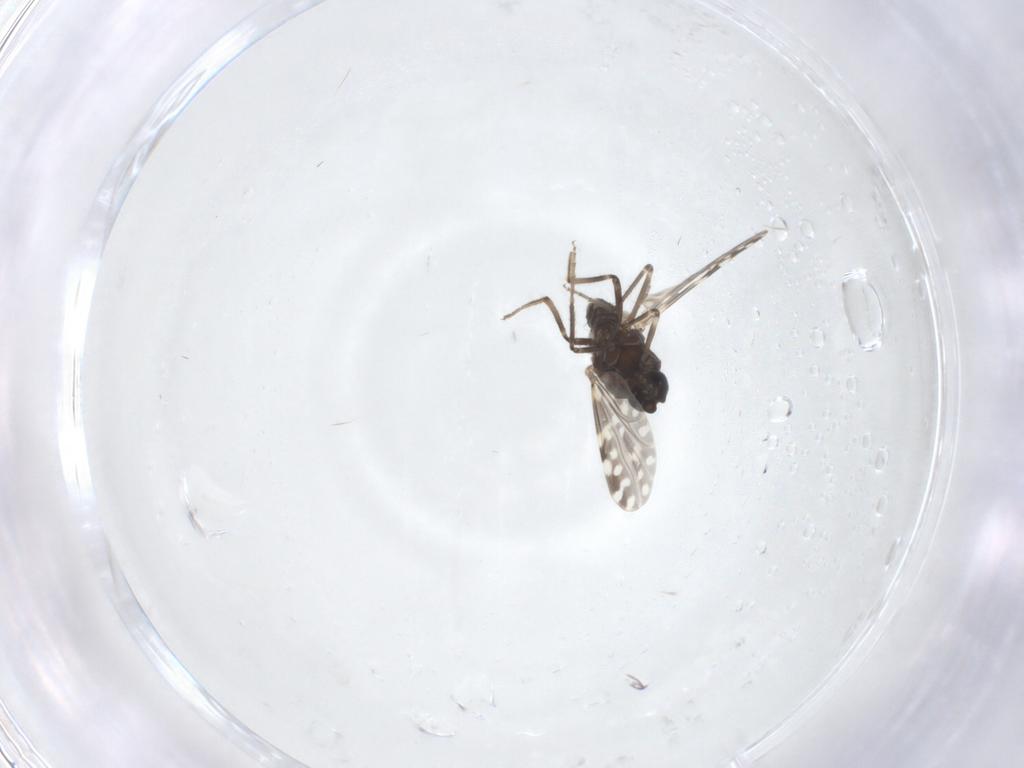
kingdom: Animalia
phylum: Arthropoda
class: Insecta
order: Diptera
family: Ceratopogonidae
